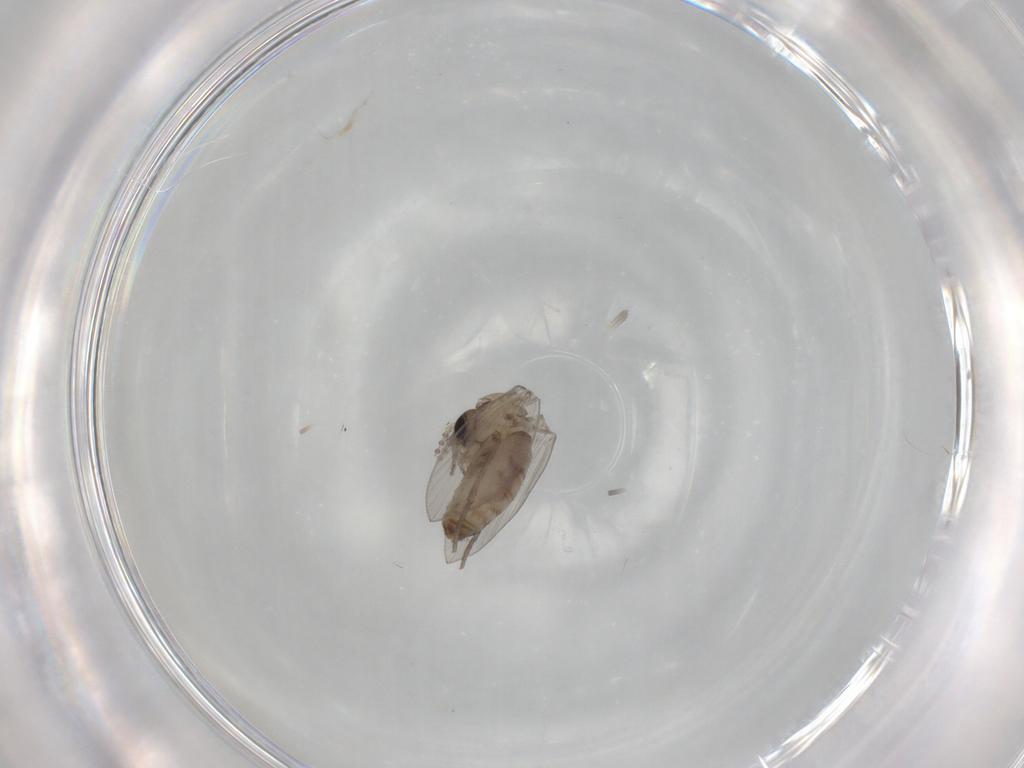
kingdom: Animalia
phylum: Arthropoda
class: Insecta
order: Diptera
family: Psychodidae
